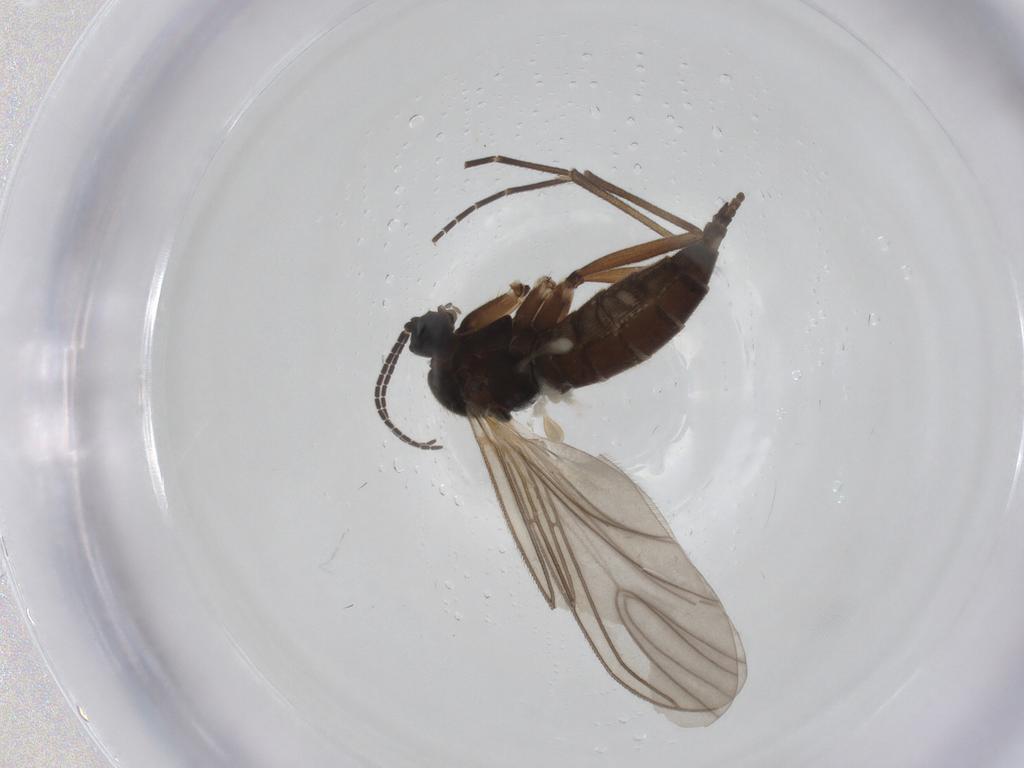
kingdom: Animalia
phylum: Arthropoda
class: Insecta
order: Diptera
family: Sciaridae
